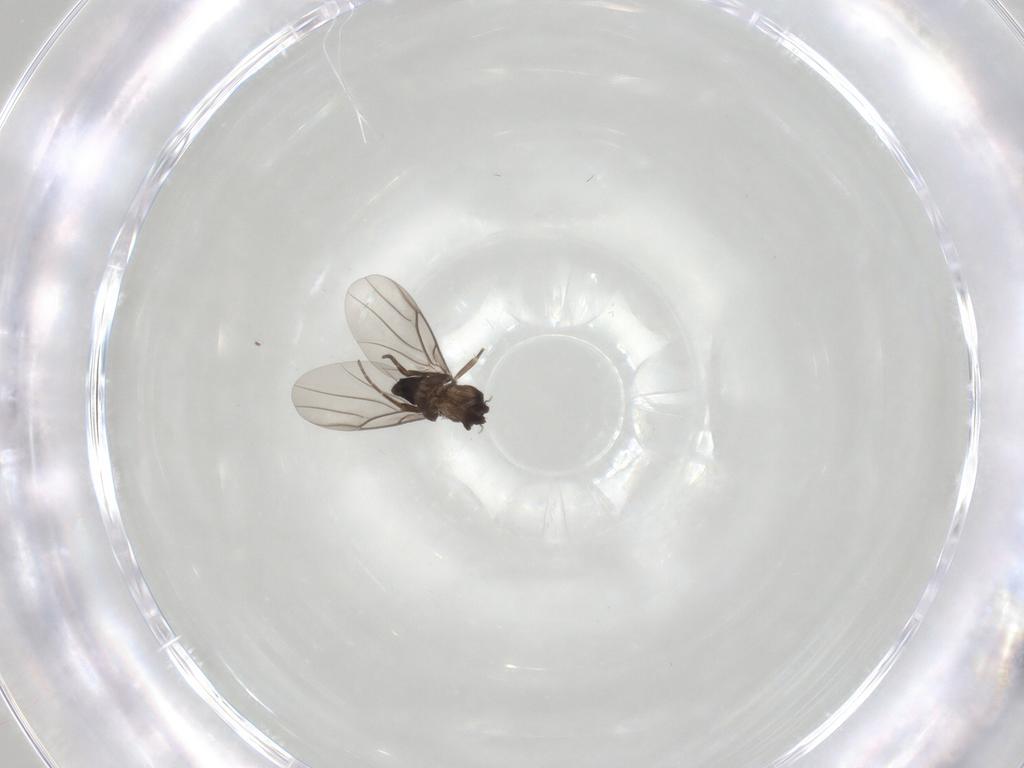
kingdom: Animalia
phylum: Arthropoda
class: Insecta
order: Diptera
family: Phoridae
